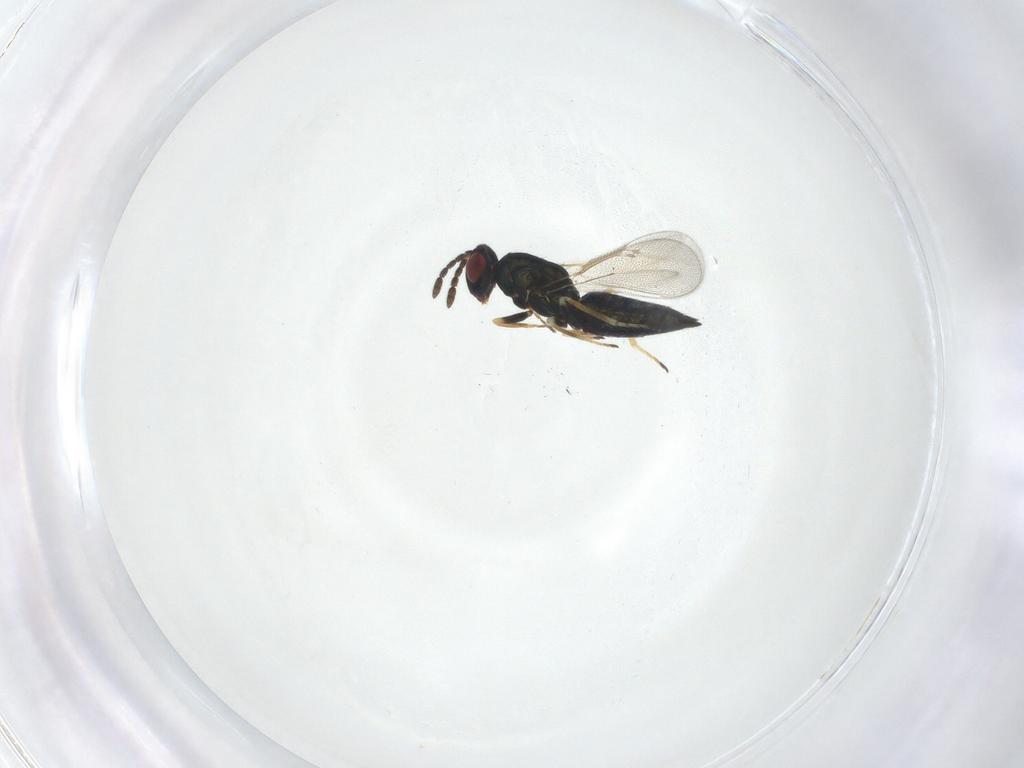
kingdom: Animalia
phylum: Arthropoda
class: Insecta
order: Hymenoptera
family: Eulophidae
